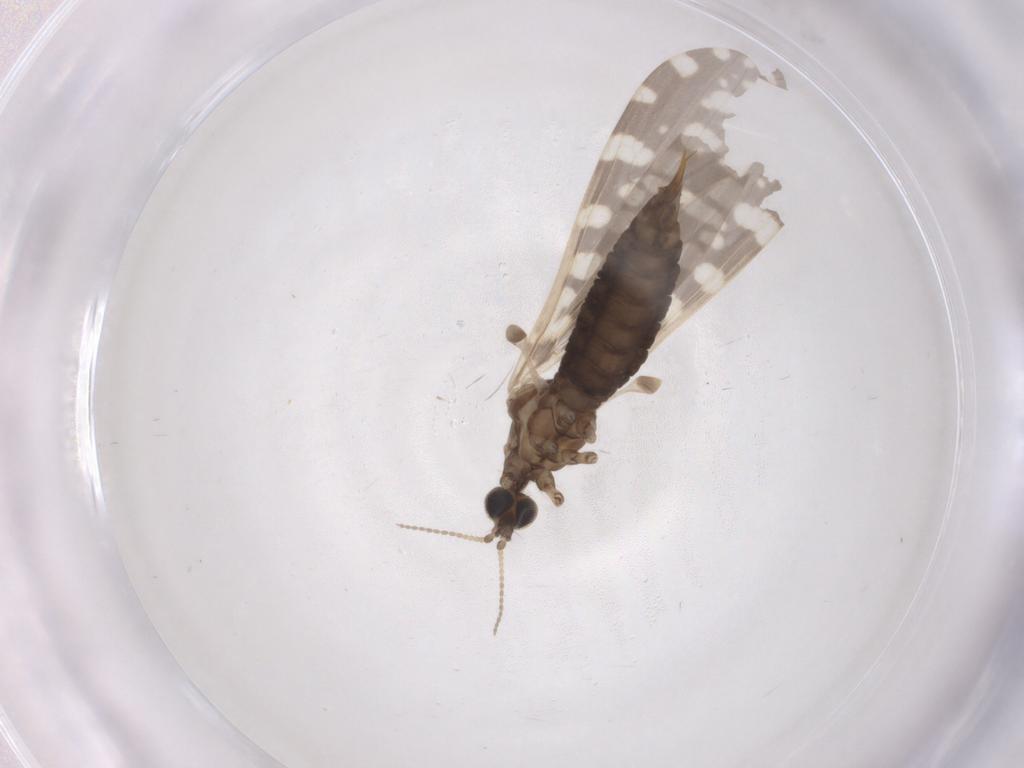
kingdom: Animalia
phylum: Arthropoda
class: Insecta
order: Diptera
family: Limoniidae
